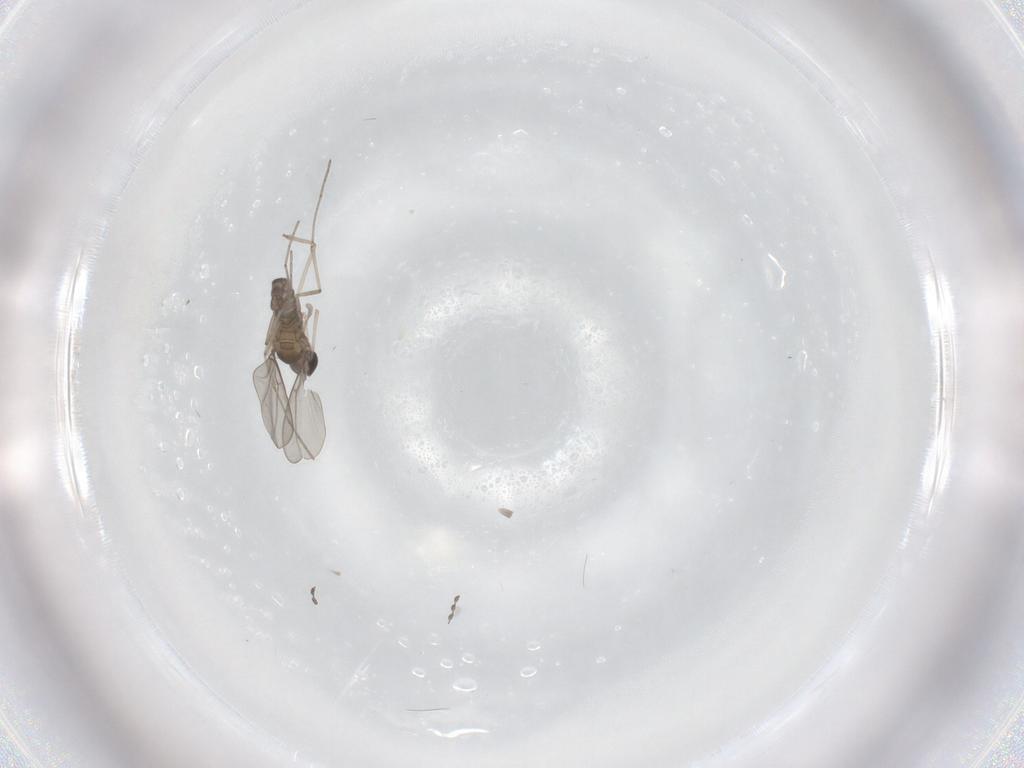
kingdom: Animalia
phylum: Arthropoda
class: Insecta
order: Diptera
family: Cecidomyiidae
